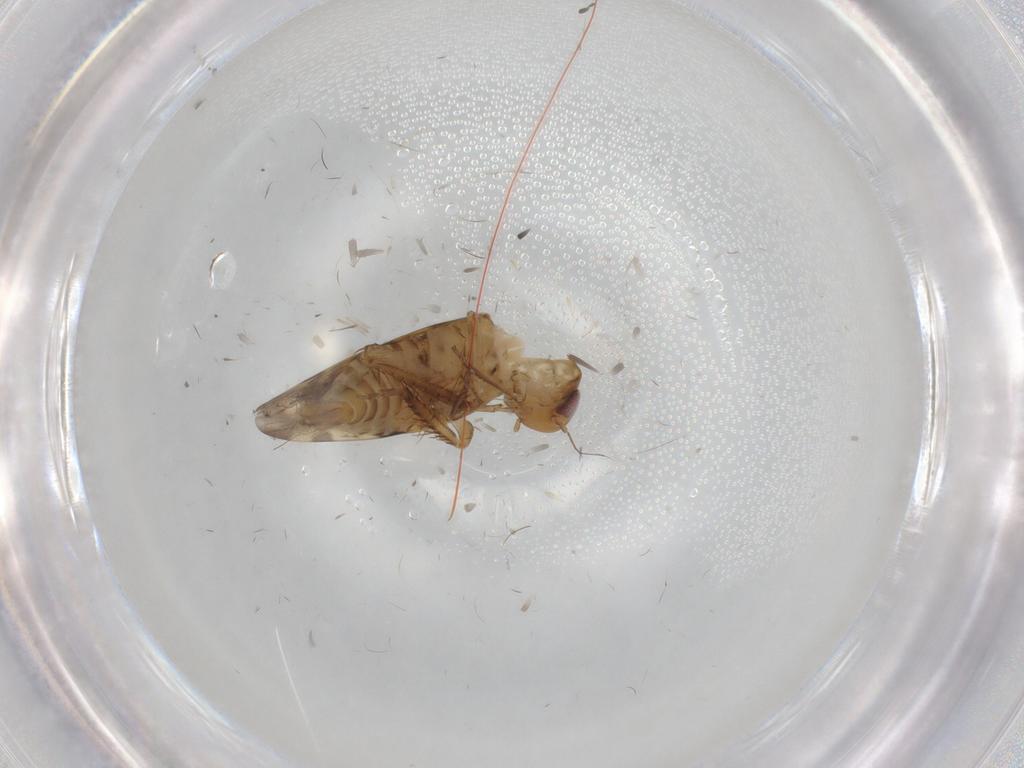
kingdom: Animalia
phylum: Arthropoda
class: Insecta
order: Hemiptera
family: Cicadellidae
